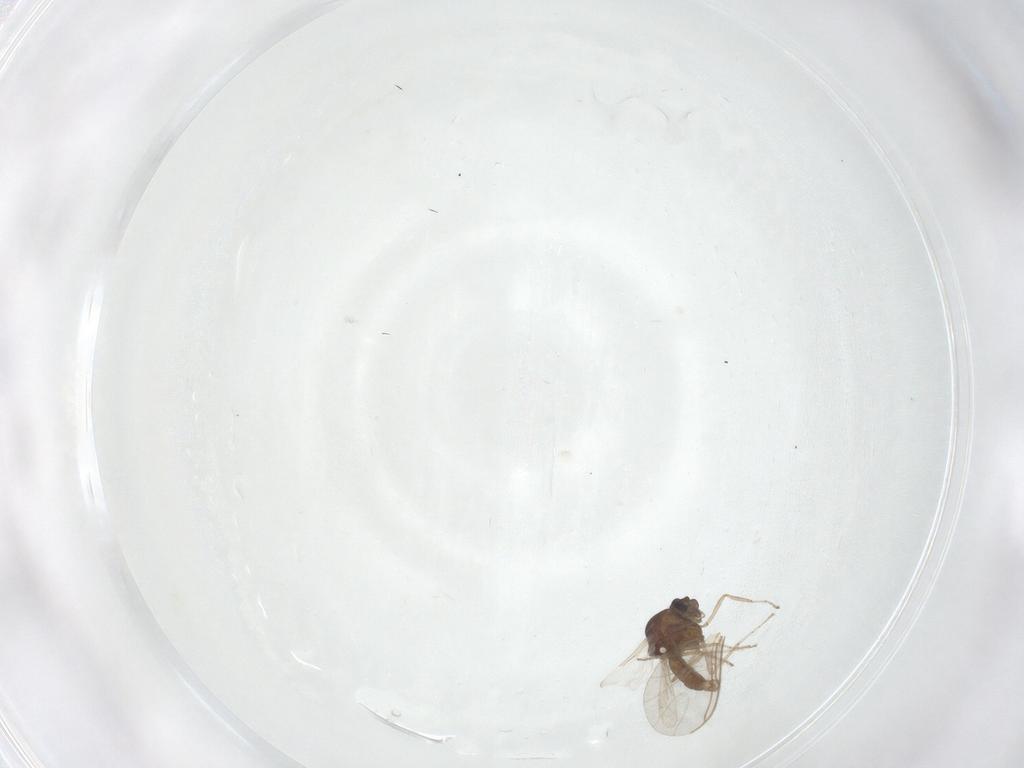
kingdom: Animalia
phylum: Arthropoda
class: Insecta
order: Diptera
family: Ceratopogonidae
